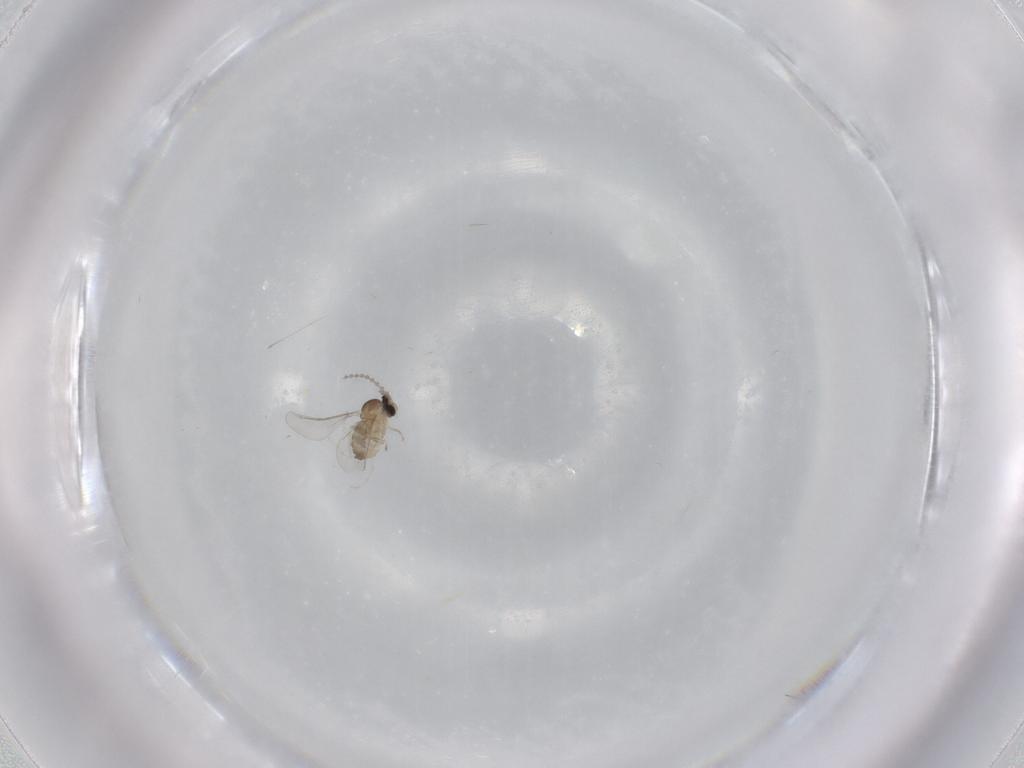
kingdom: Animalia
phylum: Arthropoda
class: Insecta
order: Diptera
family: Cecidomyiidae
